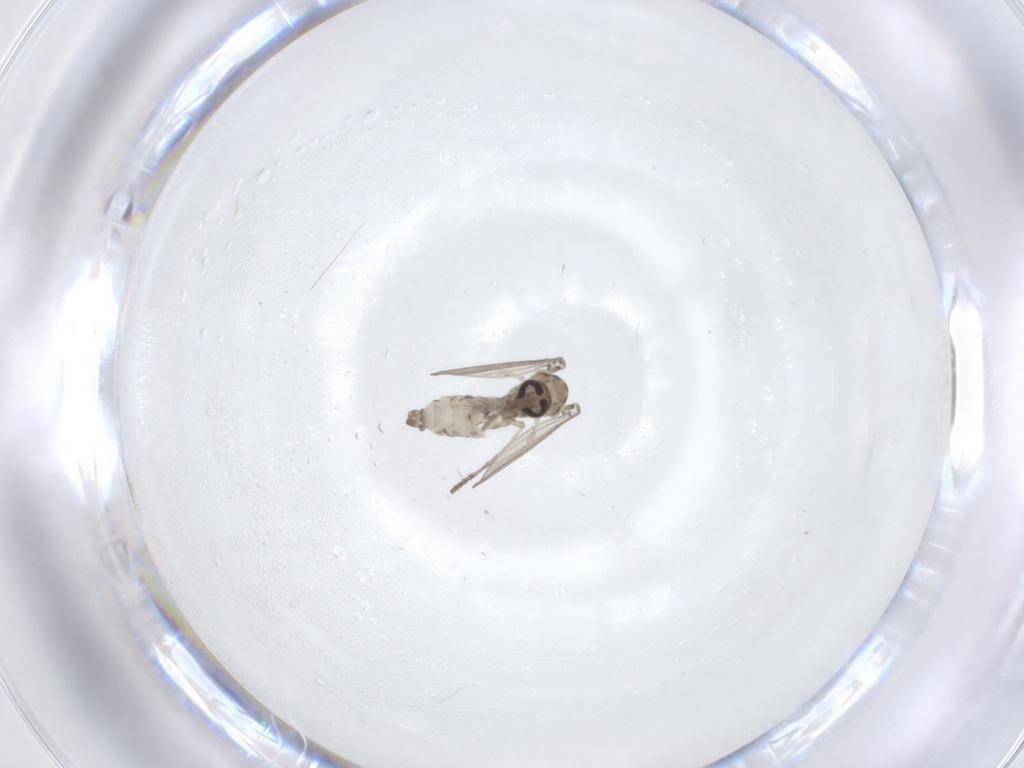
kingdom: Animalia
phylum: Arthropoda
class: Insecta
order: Diptera
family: Psychodidae
